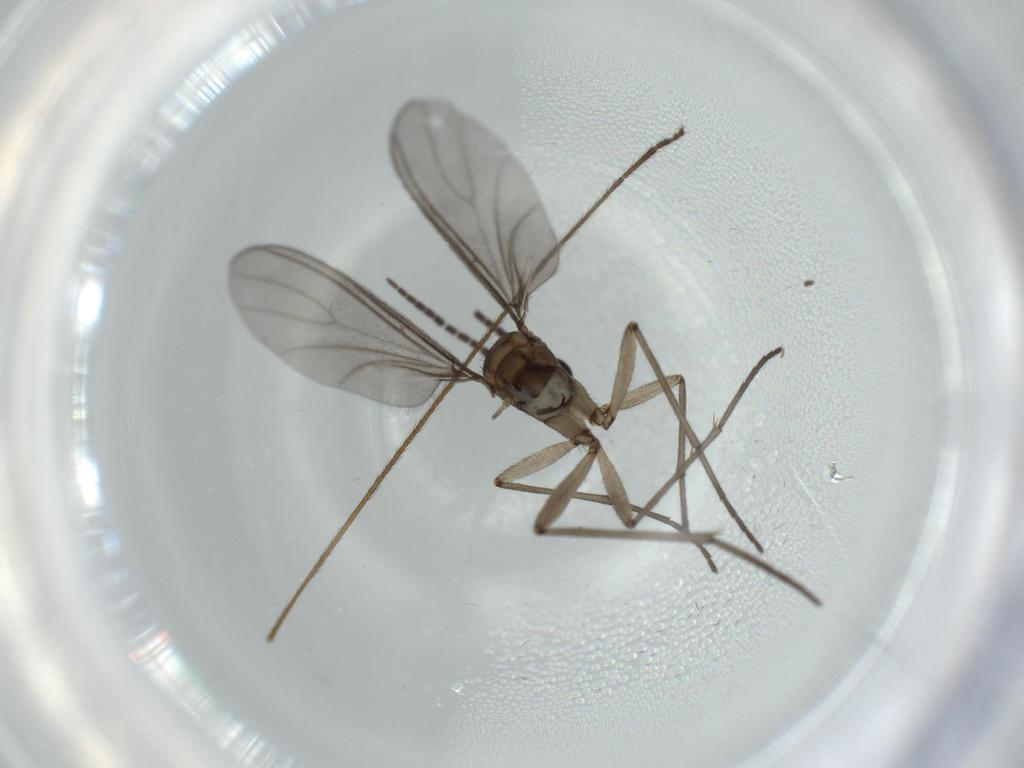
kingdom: Animalia
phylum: Arthropoda
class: Insecta
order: Diptera
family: Sciaridae
